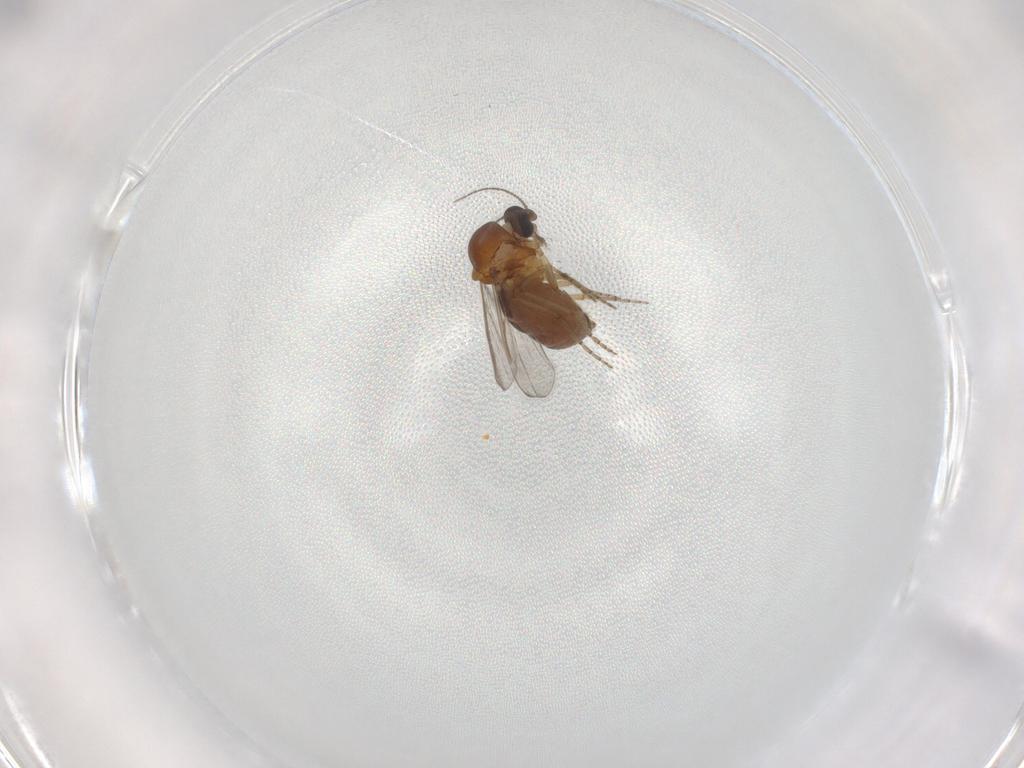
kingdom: Animalia
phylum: Arthropoda
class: Insecta
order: Diptera
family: Ceratopogonidae
